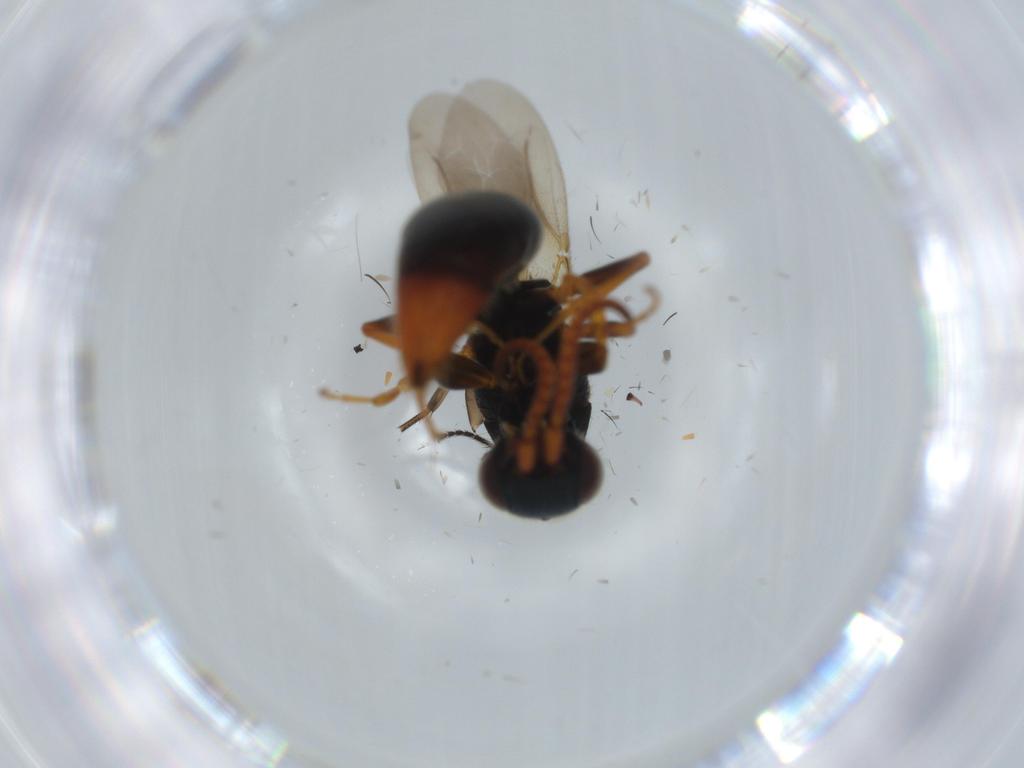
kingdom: Animalia
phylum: Arthropoda
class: Insecta
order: Hymenoptera
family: Bethylidae
